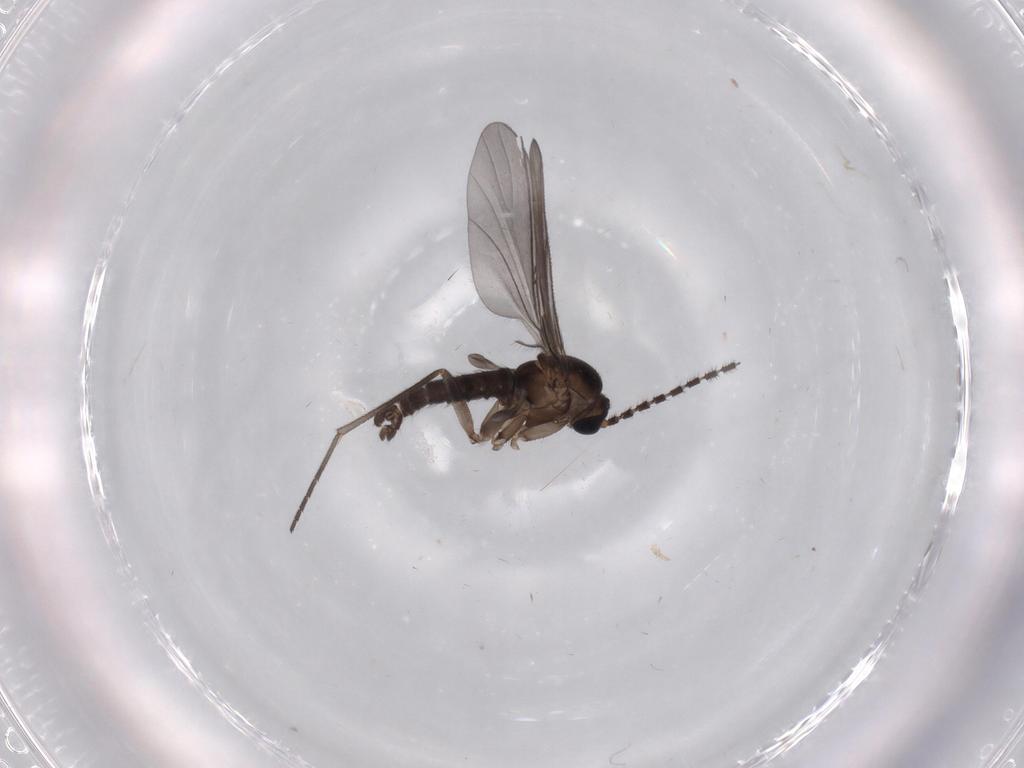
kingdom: Animalia
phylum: Arthropoda
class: Insecta
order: Diptera
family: Sciaridae
